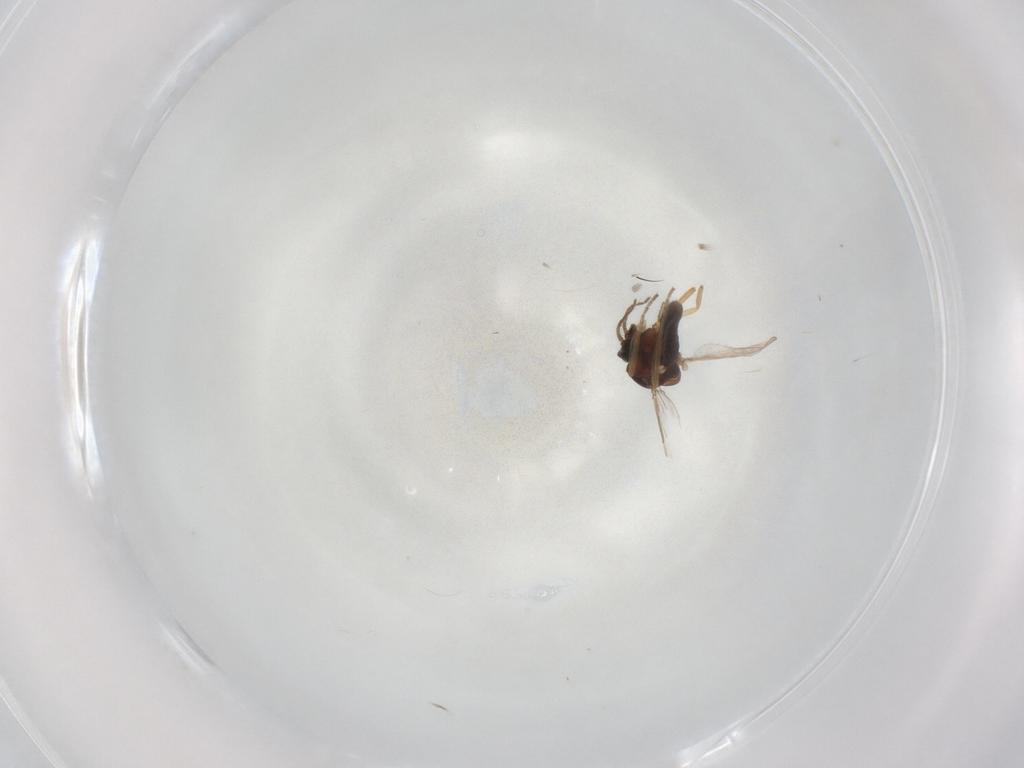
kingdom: Animalia
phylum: Arthropoda
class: Insecta
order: Diptera
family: Ceratopogonidae
